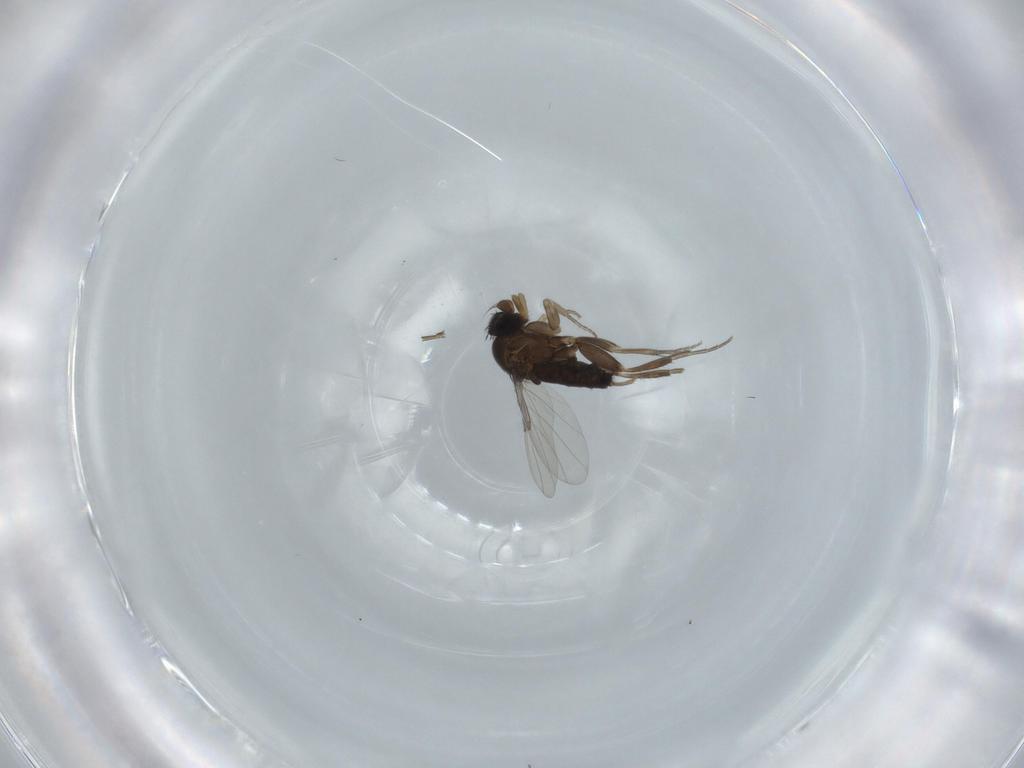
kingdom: Animalia
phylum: Arthropoda
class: Insecta
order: Diptera
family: Phoridae
